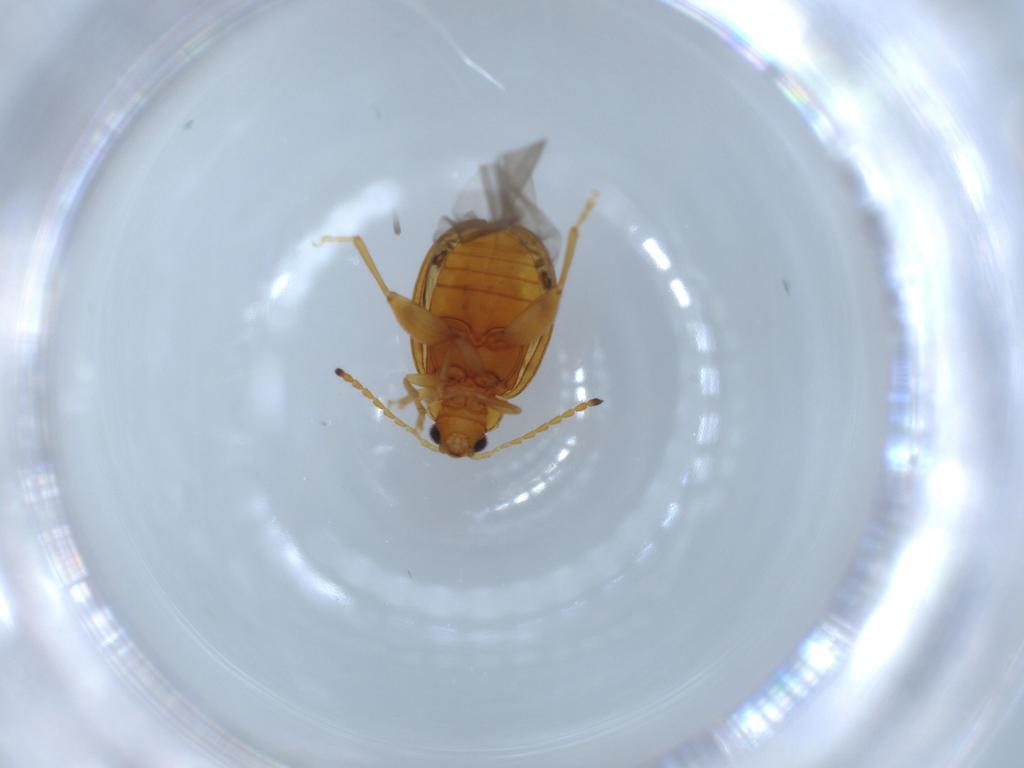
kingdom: Animalia
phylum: Arthropoda
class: Insecta
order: Coleoptera
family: Chrysomelidae
